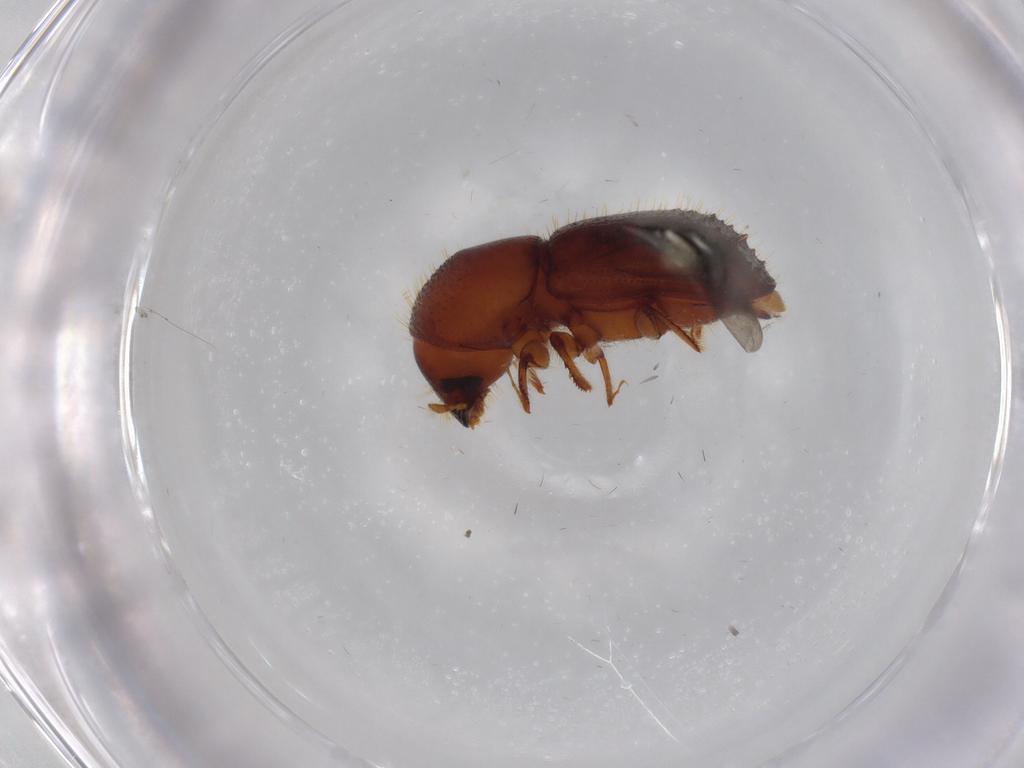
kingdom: Animalia
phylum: Arthropoda
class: Insecta
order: Coleoptera
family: Curculionidae
